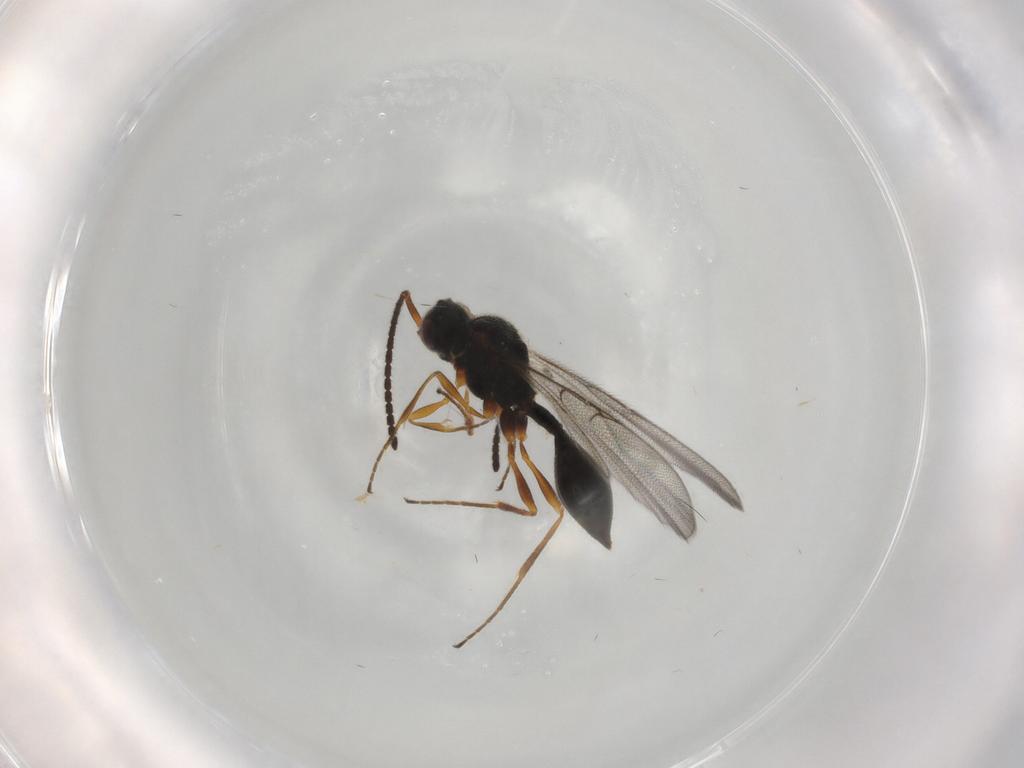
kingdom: Animalia
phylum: Arthropoda
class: Insecta
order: Hymenoptera
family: Diapriidae
